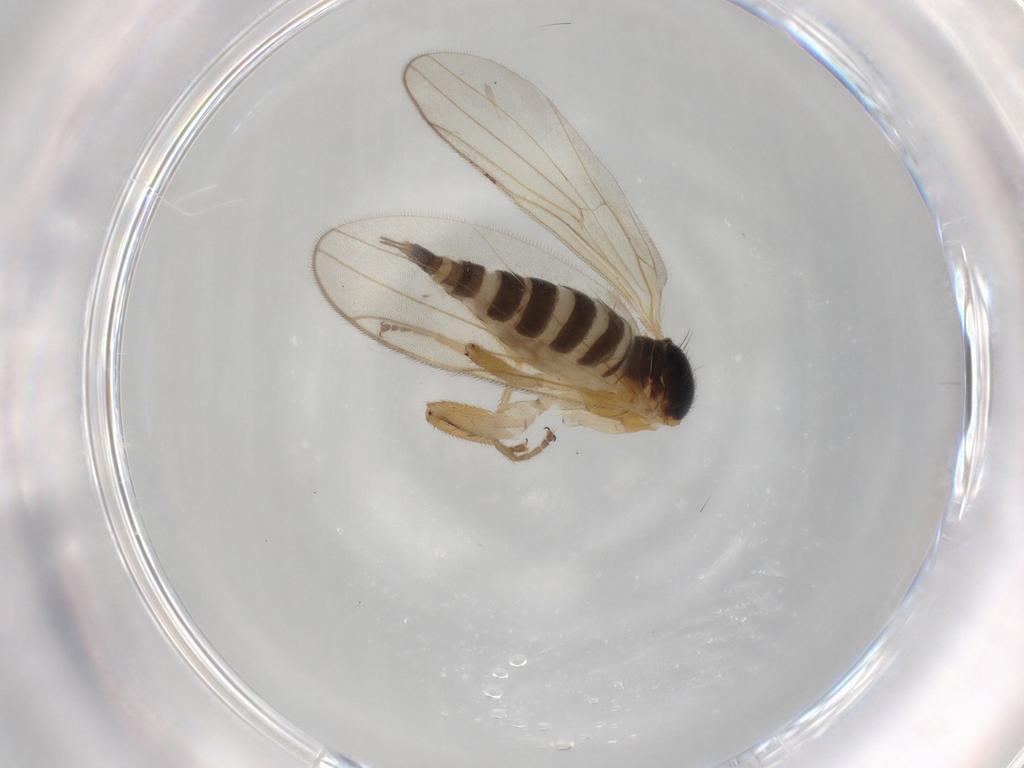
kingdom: Animalia
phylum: Arthropoda
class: Insecta
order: Diptera
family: Hybotidae
